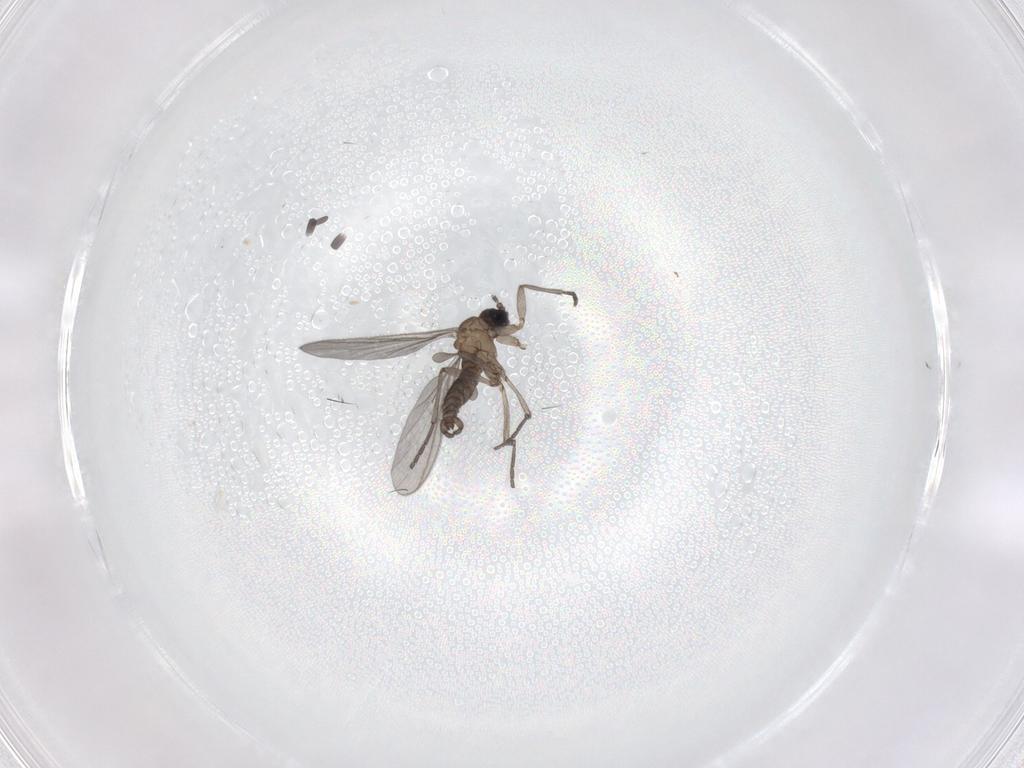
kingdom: Animalia
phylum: Arthropoda
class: Insecta
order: Diptera
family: Sciaridae
